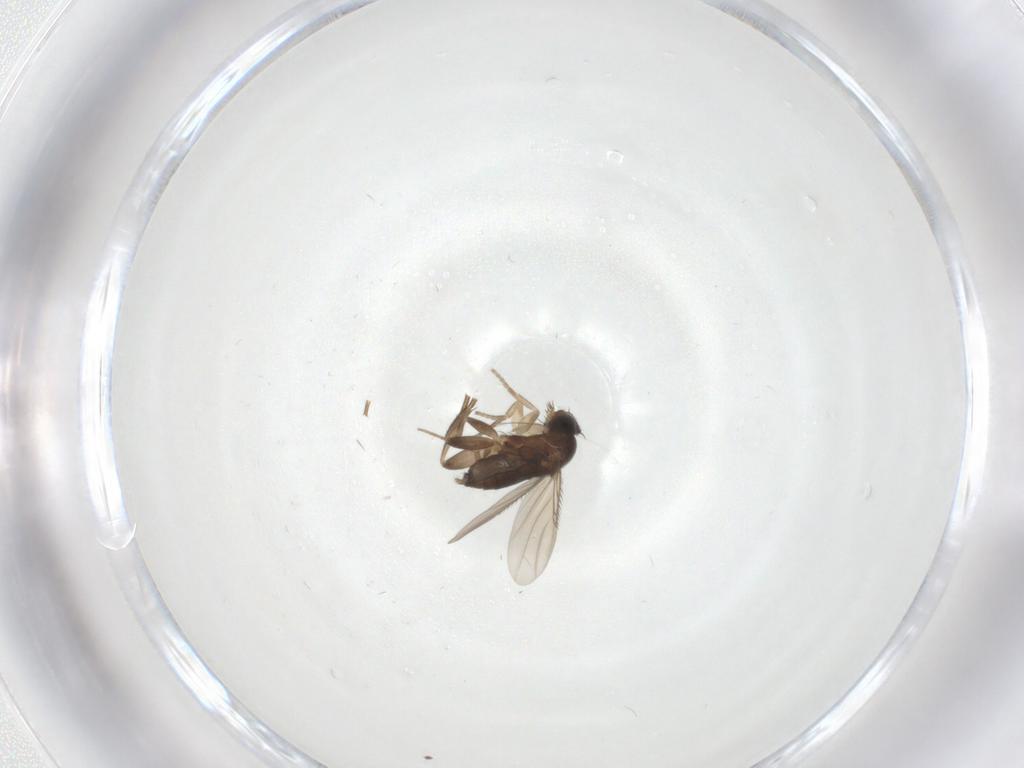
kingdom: Animalia
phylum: Arthropoda
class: Insecta
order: Diptera
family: Phoridae
